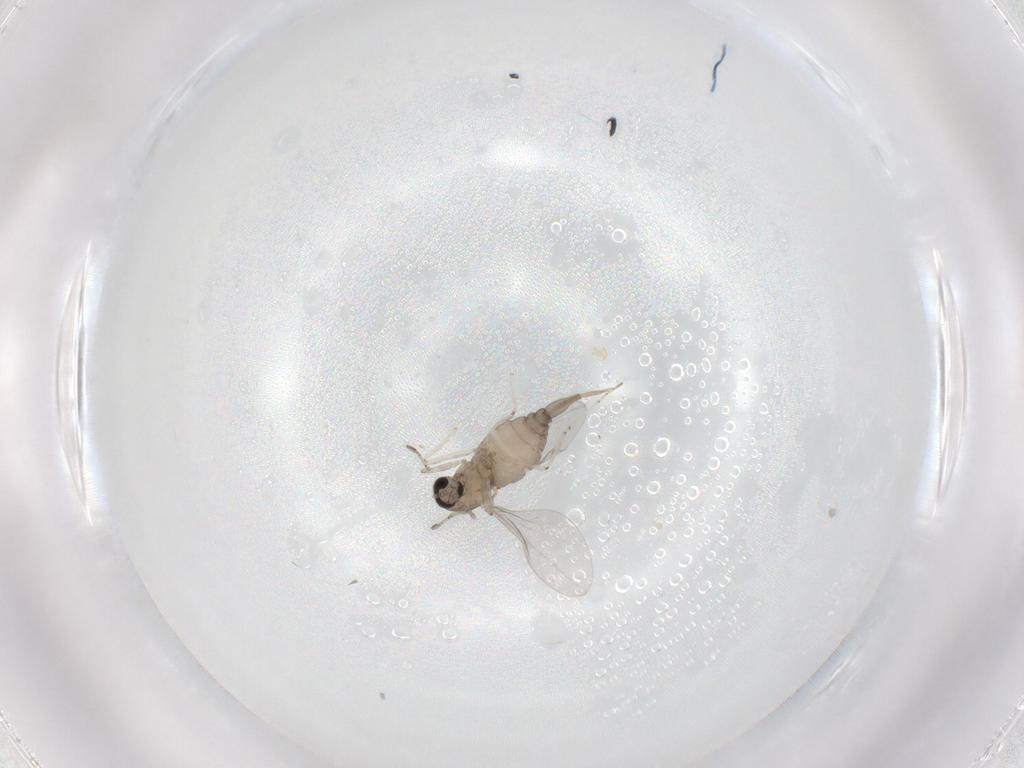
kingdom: Animalia
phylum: Arthropoda
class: Insecta
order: Diptera
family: Cecidomyiidae
